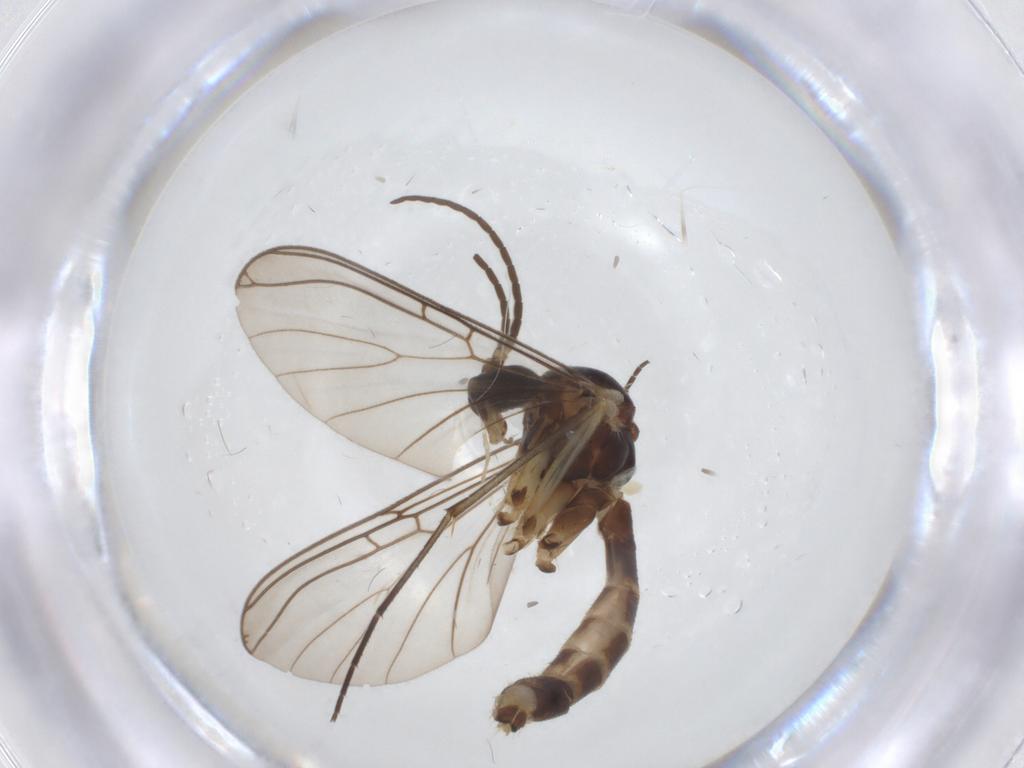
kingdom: Animalia
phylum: Arthropoda
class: Insecta
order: Diptera
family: Mycetophilidae
